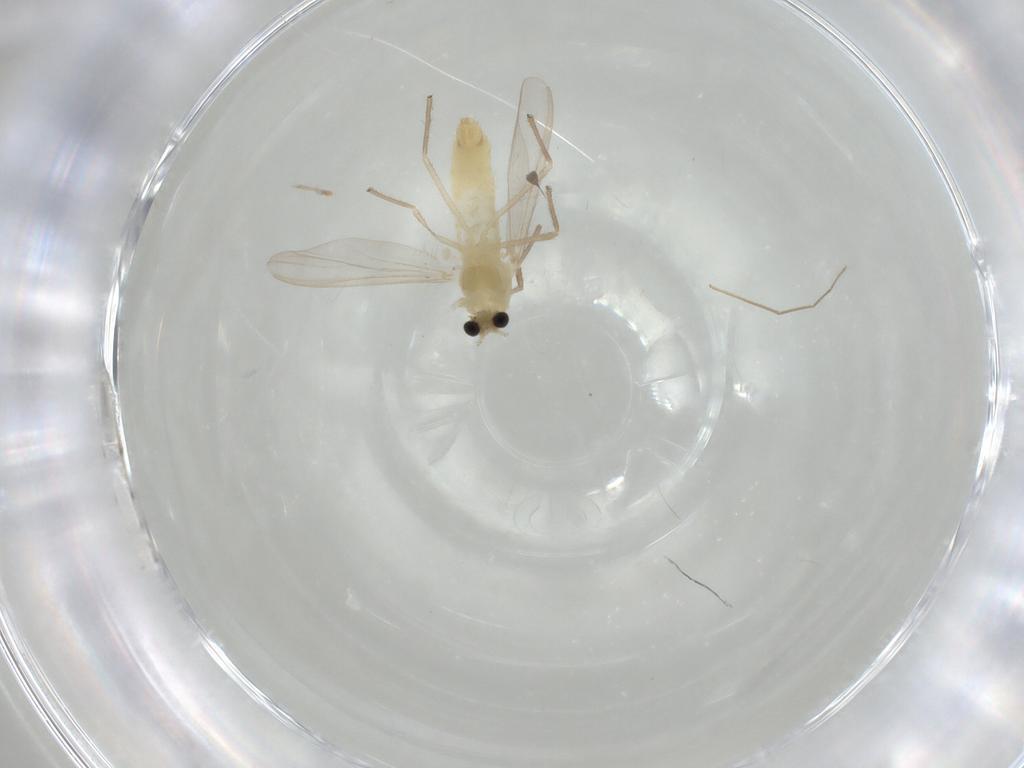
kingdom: Animalia
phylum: Arthropoda
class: Insecta
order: Diptera
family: Chironomidae
